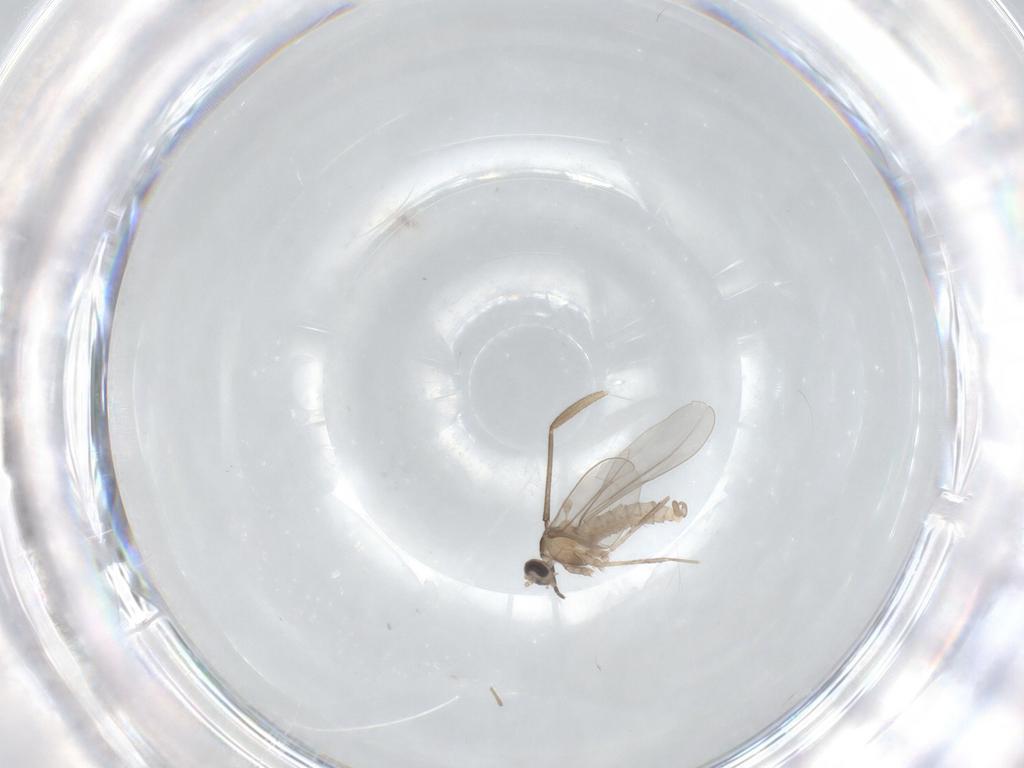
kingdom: Animalia
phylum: Arthropoda
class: Insecta
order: Diptera
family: Sciaridae
